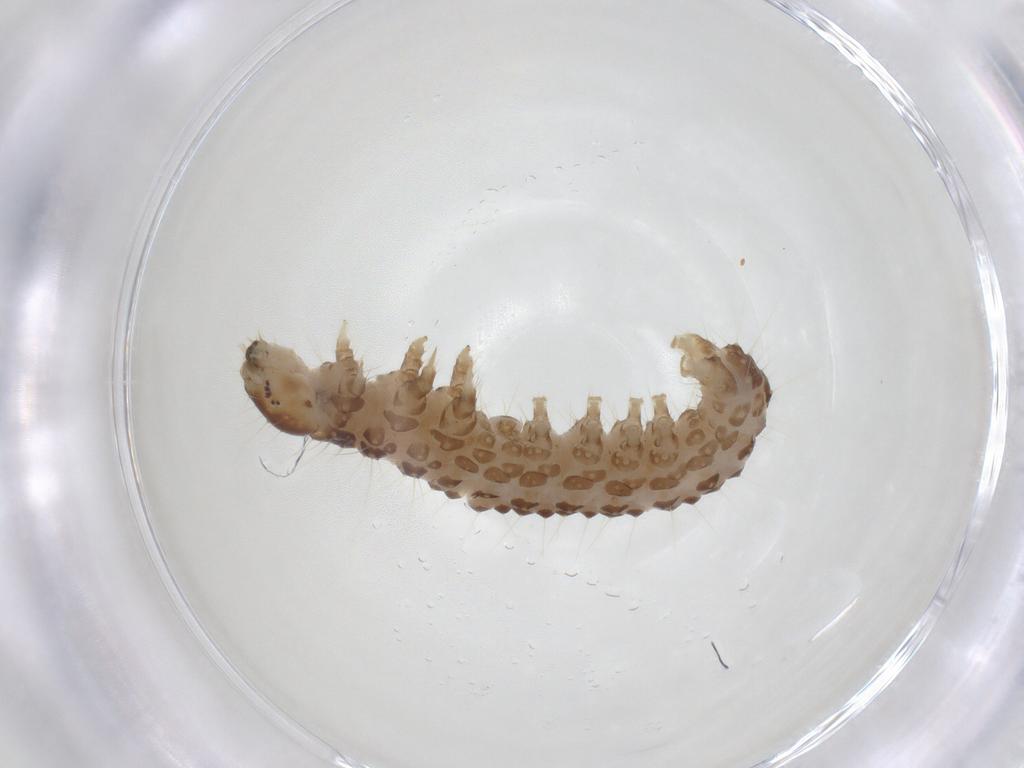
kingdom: Animalia
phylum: Arthropoda
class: Insecta
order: Lepidoptera
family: Crambidae
